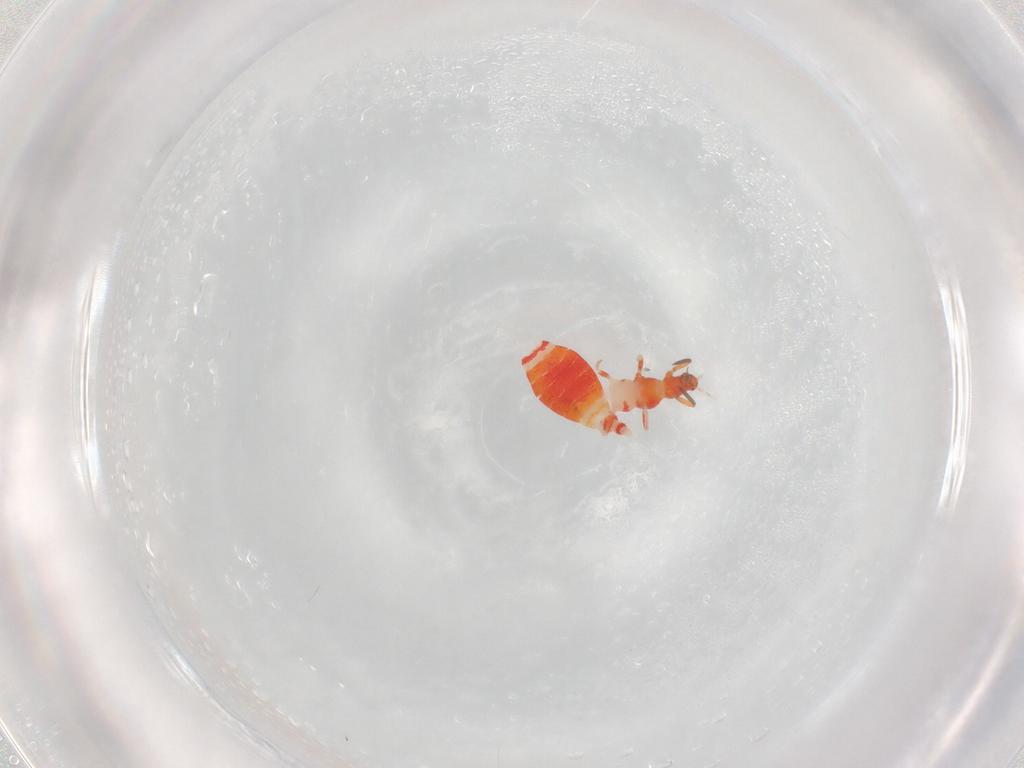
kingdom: Animalia
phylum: Arthropoda
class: Insecta
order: Thysanoptera
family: Aeolothripidae
